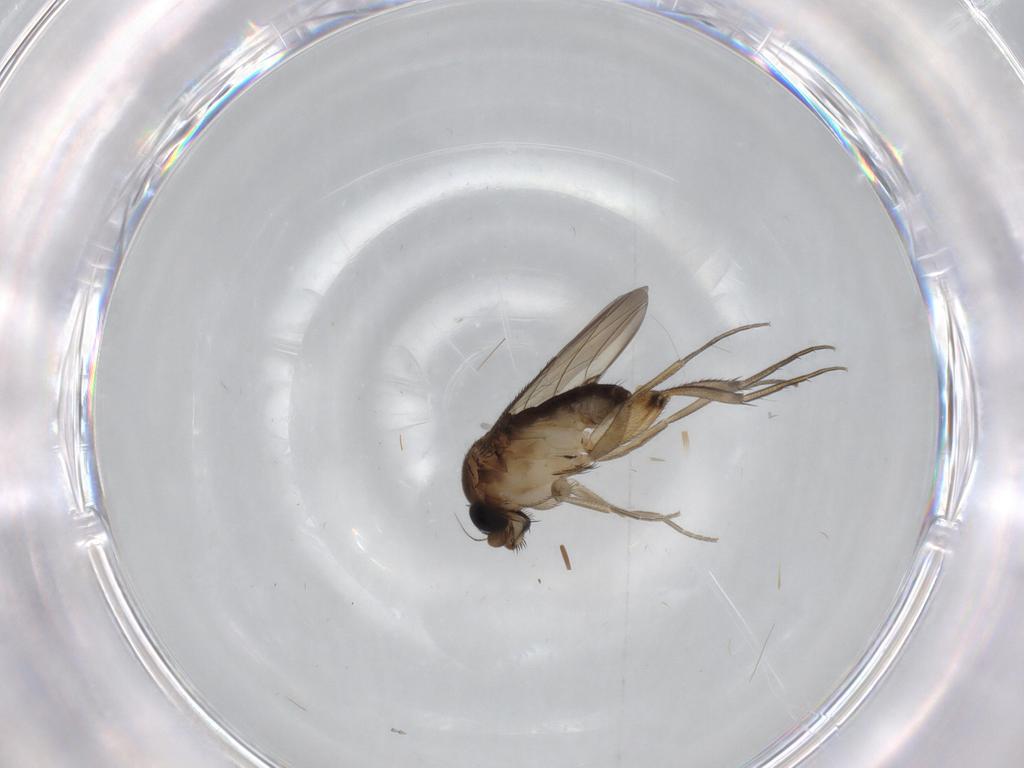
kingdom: Animalia
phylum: Arthropoda
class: Insecta
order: Diptera
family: Phoridae
